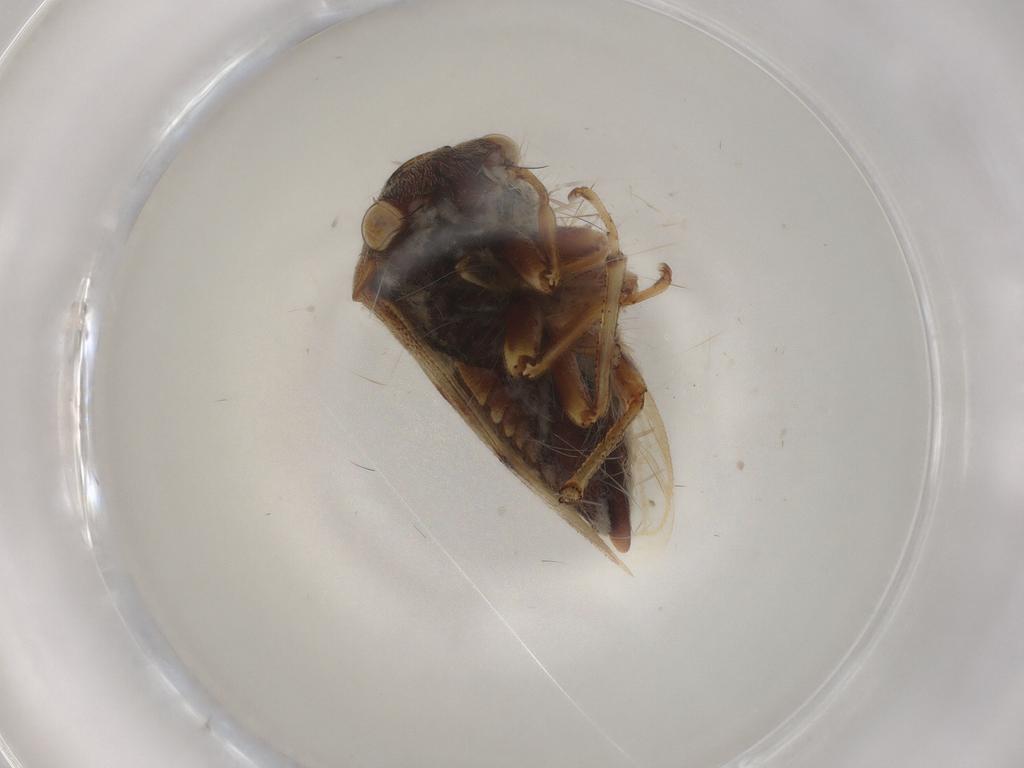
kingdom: Animalia
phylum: Arthropoda
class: Insecta
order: Hemiptera
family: Membracidae
